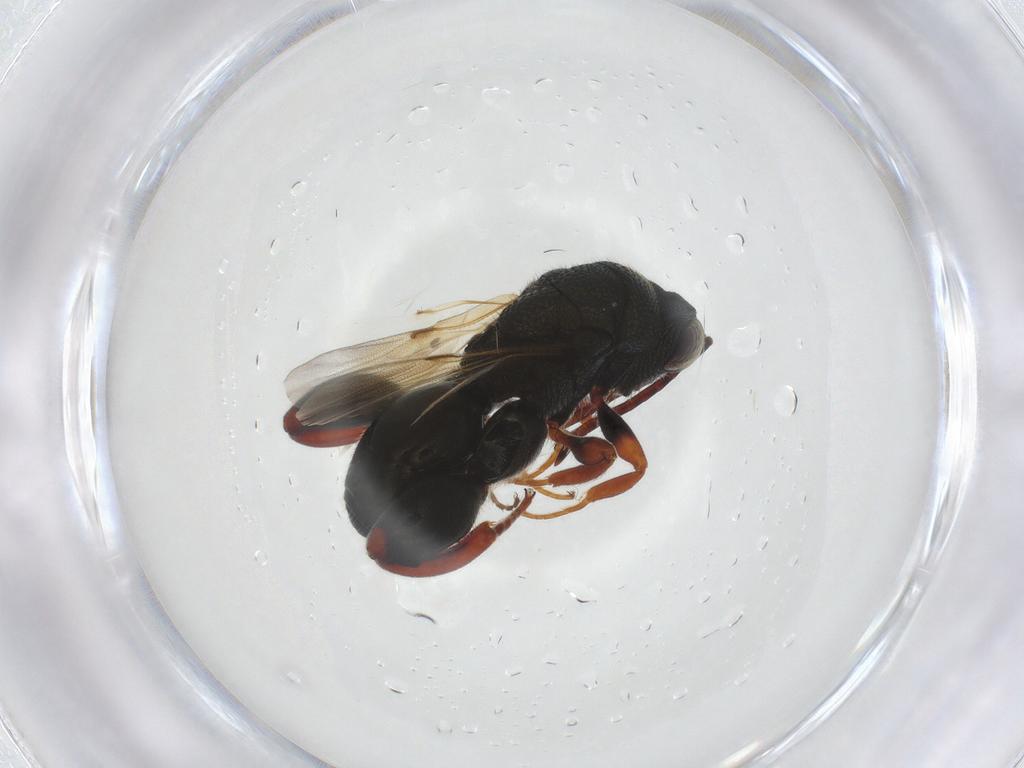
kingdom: Animalia
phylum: Arthropoda
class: Insecta
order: Hymenoptera
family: Chalcididae
